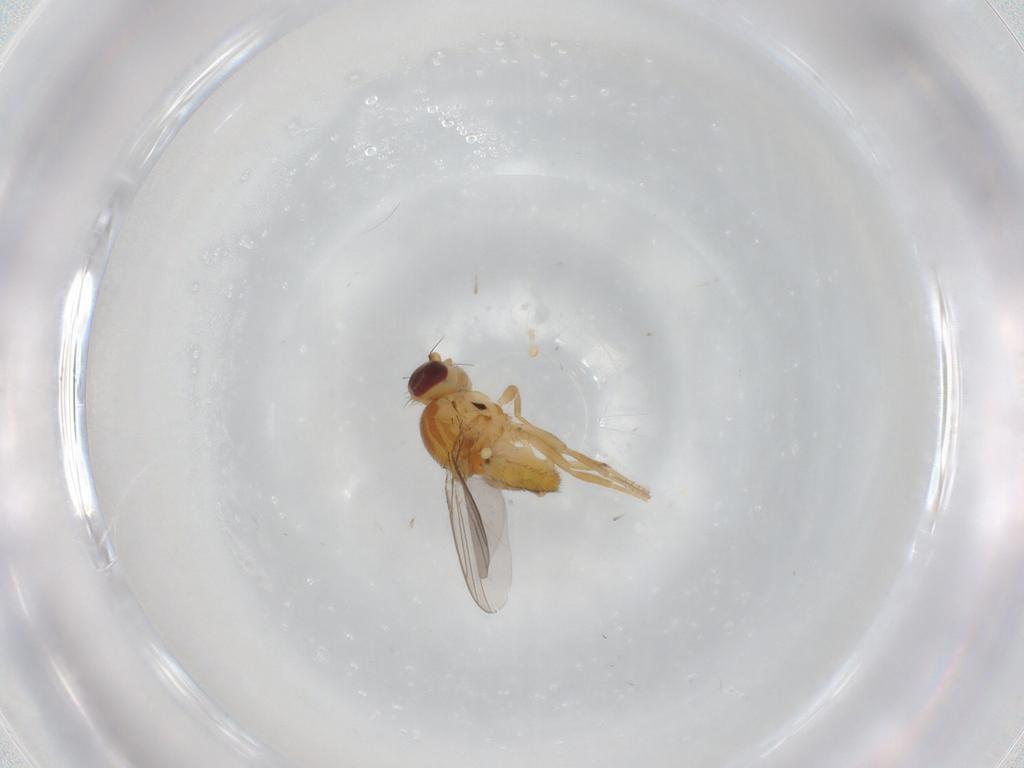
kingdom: Animalia
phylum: Arthropoda
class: Insecta
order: Diptera
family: Chloropidae
